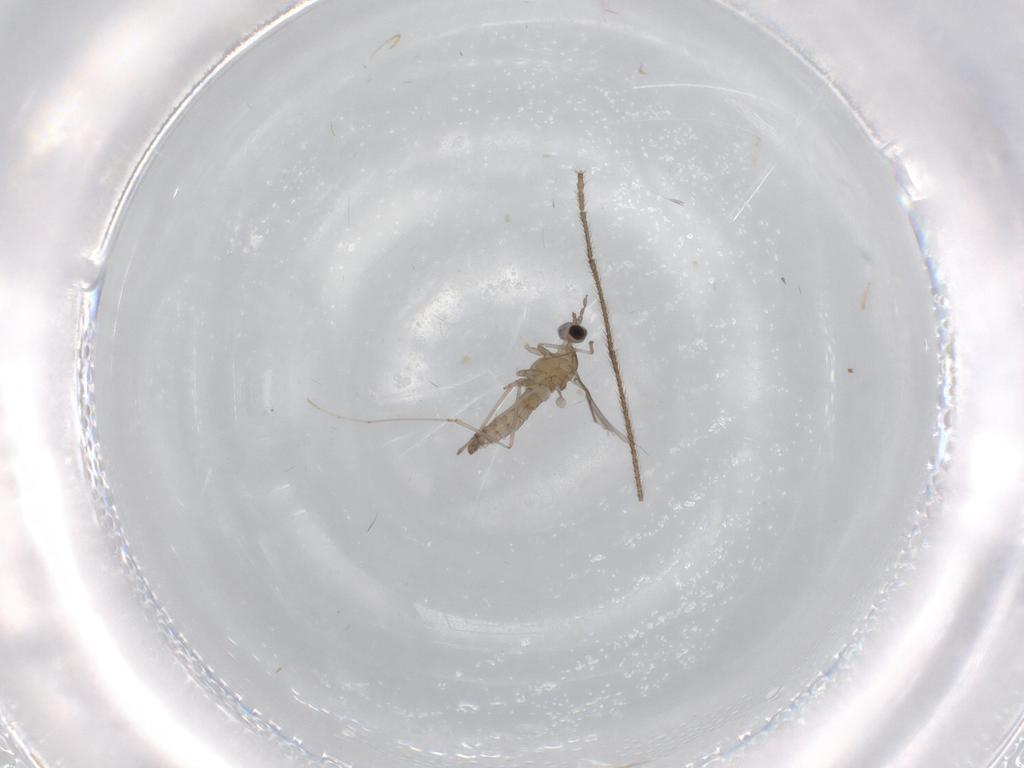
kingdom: Animalia
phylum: Arthropoda
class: Insecta
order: Diptera
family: Cecidomyiidae
